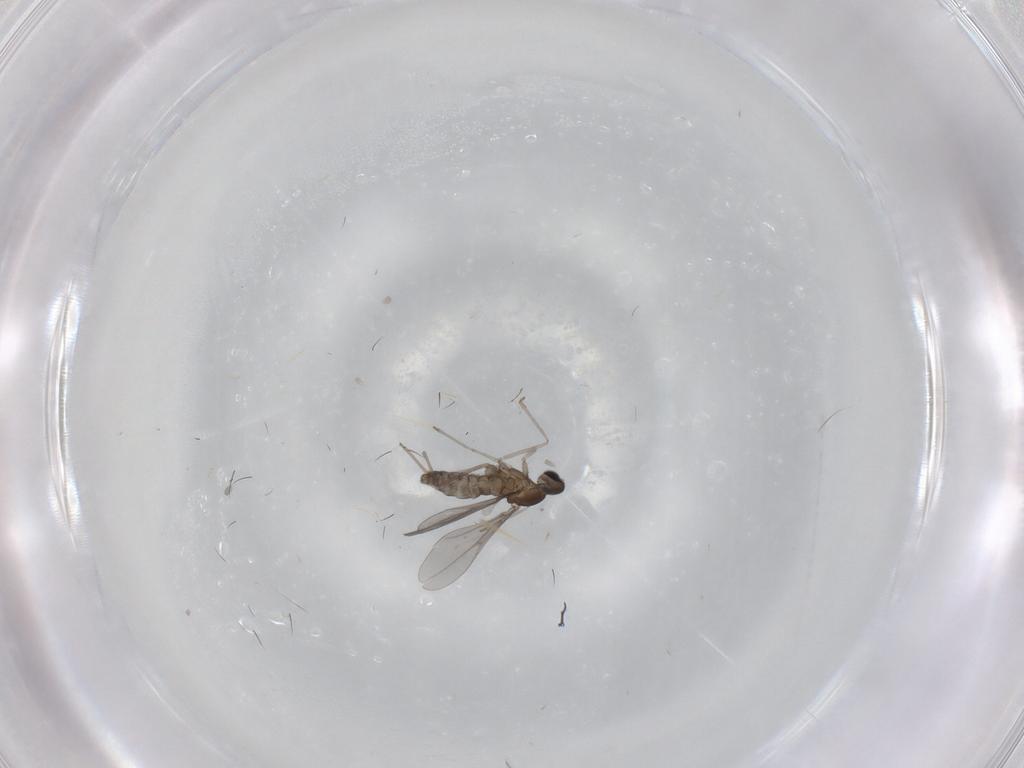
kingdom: Animalia
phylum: Arthropoda
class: Insecta
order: Diptera
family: Cecidomyiidae
